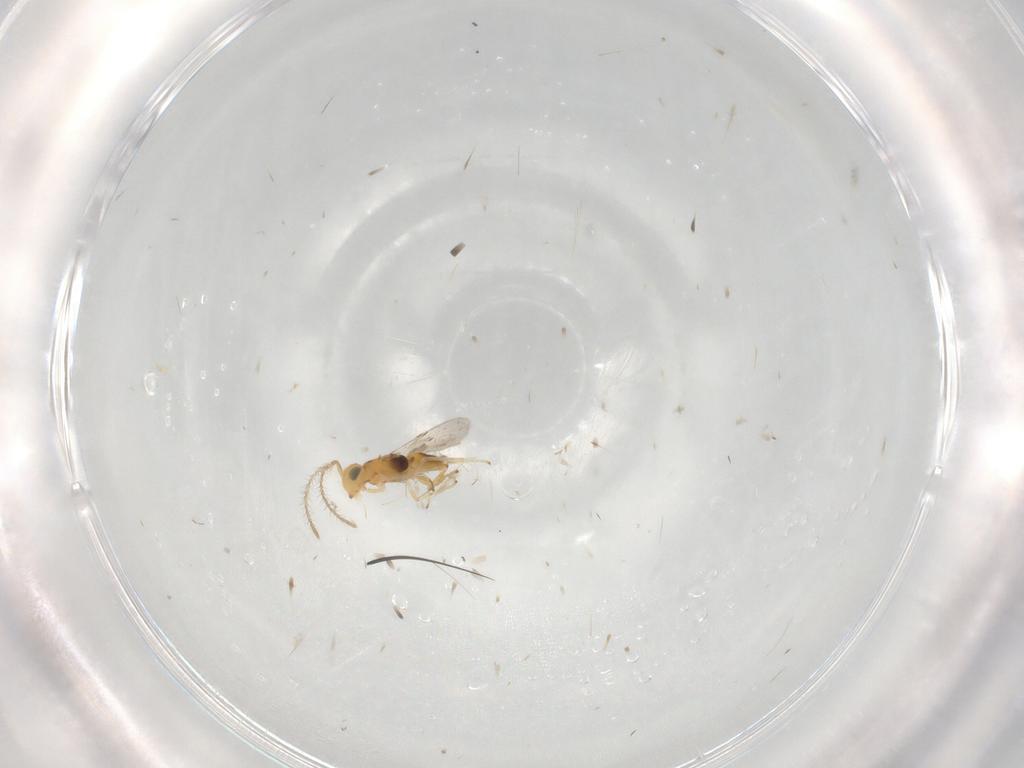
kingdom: Animalia
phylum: Arthropoda
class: Insecta
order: Hymenoptera
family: Encyrtidae
